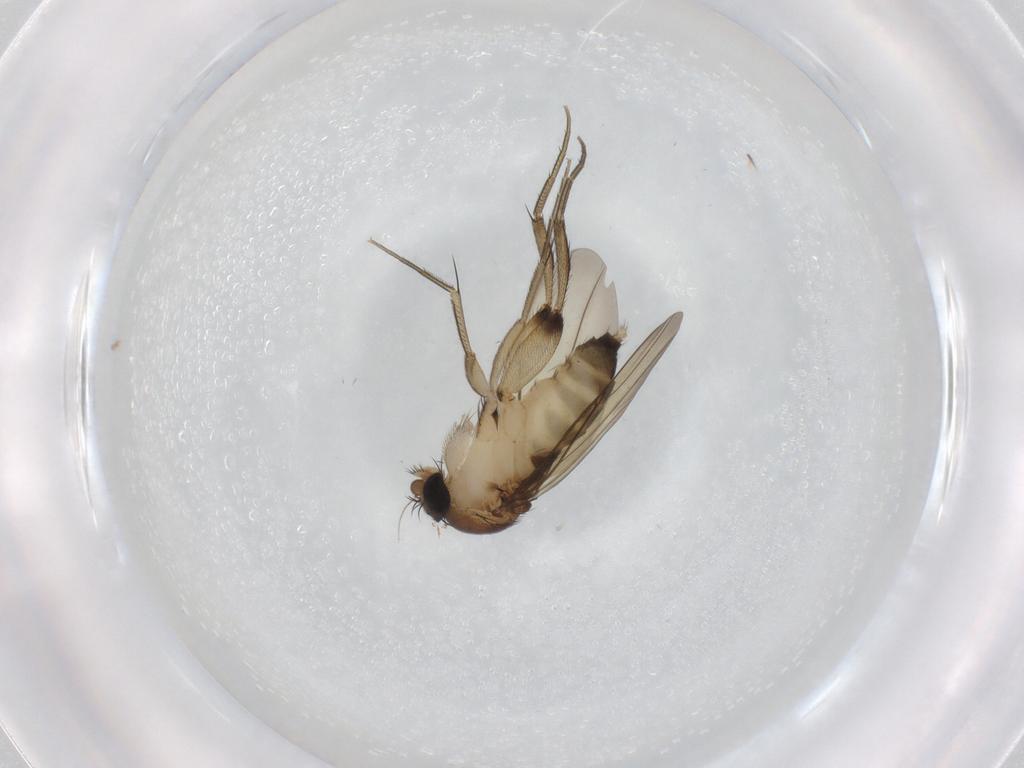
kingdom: Animalia
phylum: Arthropoda
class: Insecta
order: Diptera
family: Phoridae
